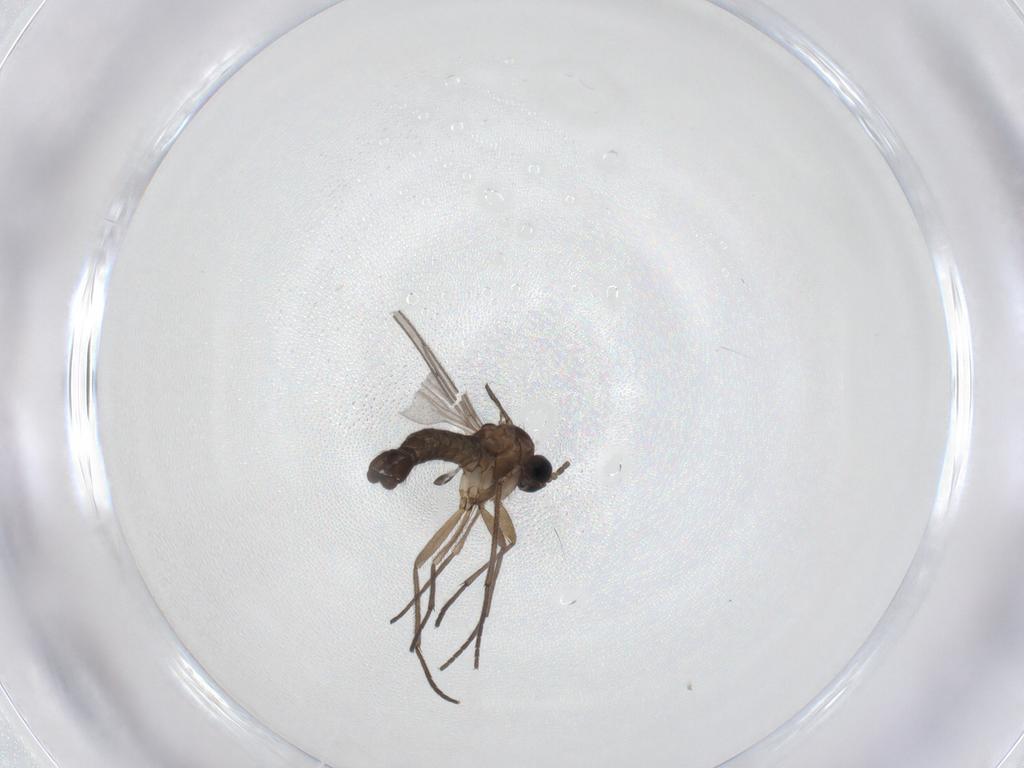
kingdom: Animalia
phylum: Arthropoda
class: Insecta
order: Diptera
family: Sciaridae
